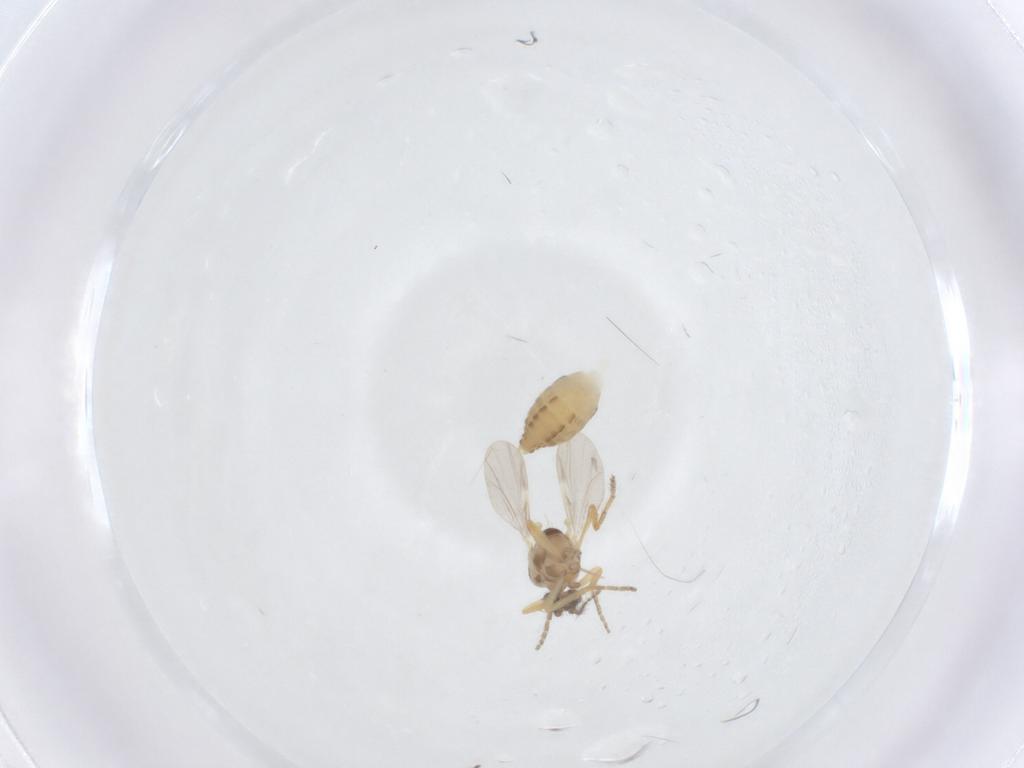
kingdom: Animalia
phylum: Arthropoda
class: Insecta
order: Diptera
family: Ceratopogonidae
